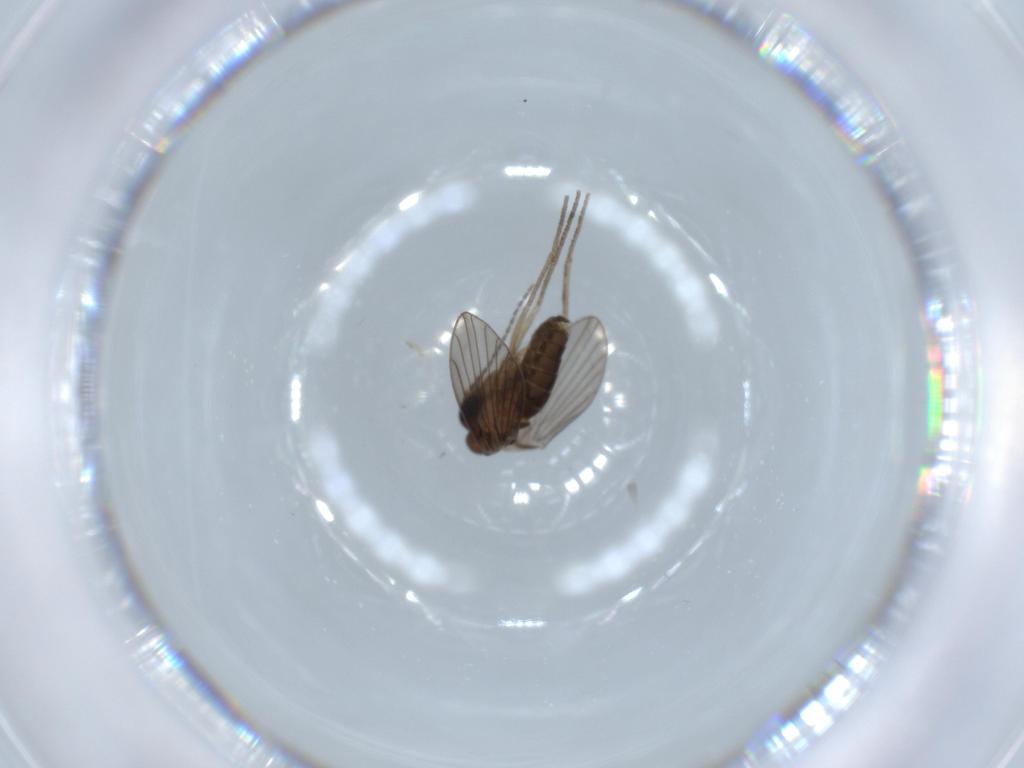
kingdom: Animalia
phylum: Arthropoda
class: Insecta
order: Diptera
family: Psychodidae
